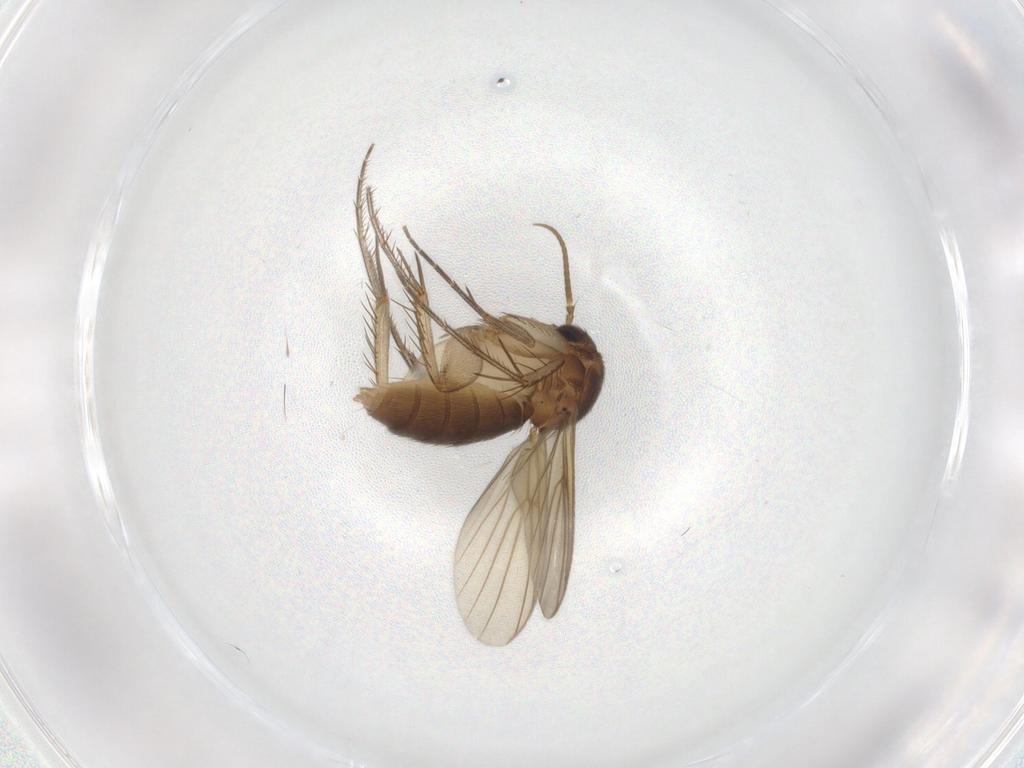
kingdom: Animalia
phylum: Arthropoda
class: Insecta
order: Diptera
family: Mycetophilidae
